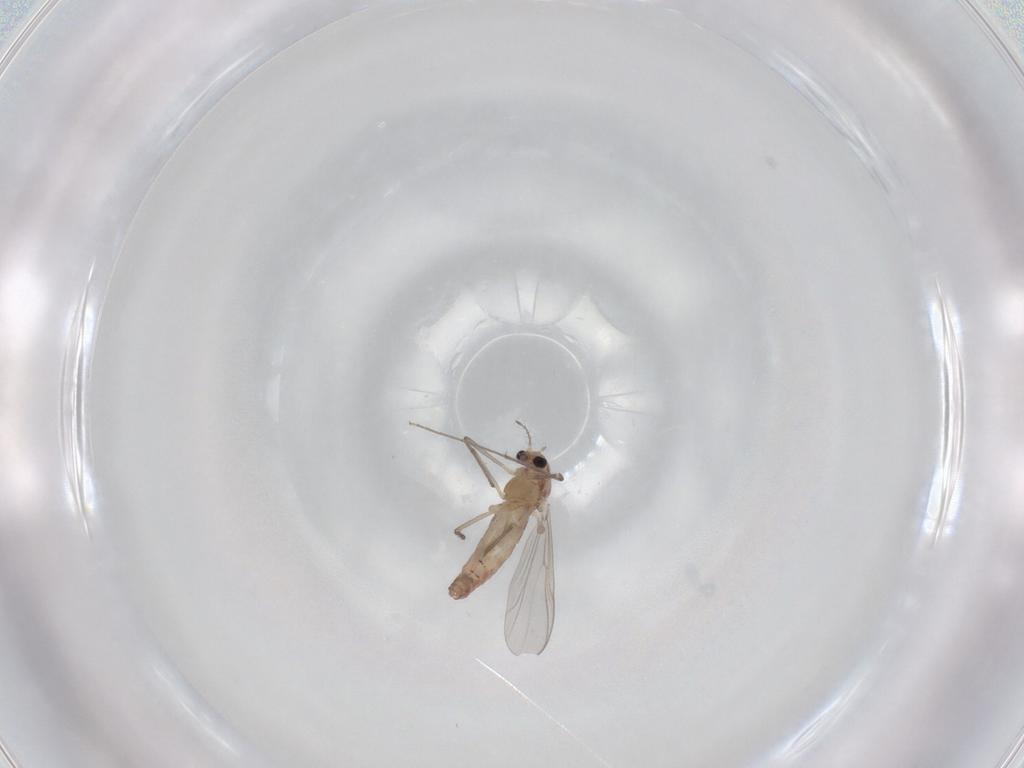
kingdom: Animalia
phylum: Arthropoda
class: Insecta
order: Diptera
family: Chironomidae
